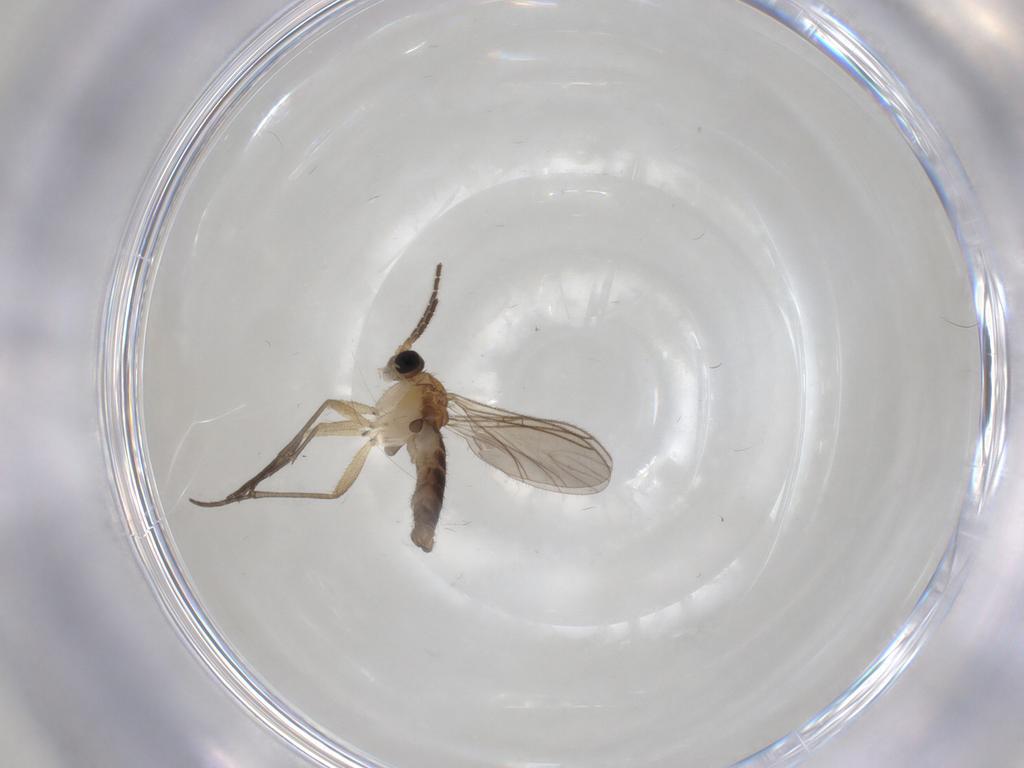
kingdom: Animalia
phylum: Arthropoda
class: Insecta
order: Diptera
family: Sciaridae
